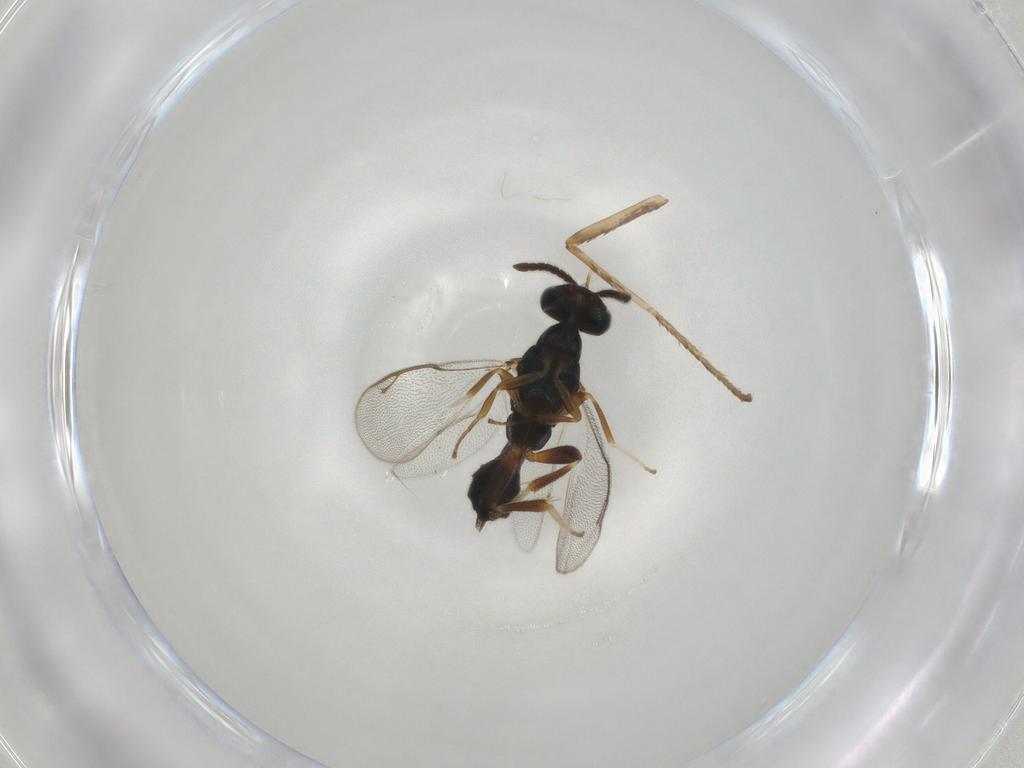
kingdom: Animalia
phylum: Arthropoda
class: Insecta
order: Hymenoptera
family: Cleonyminae
